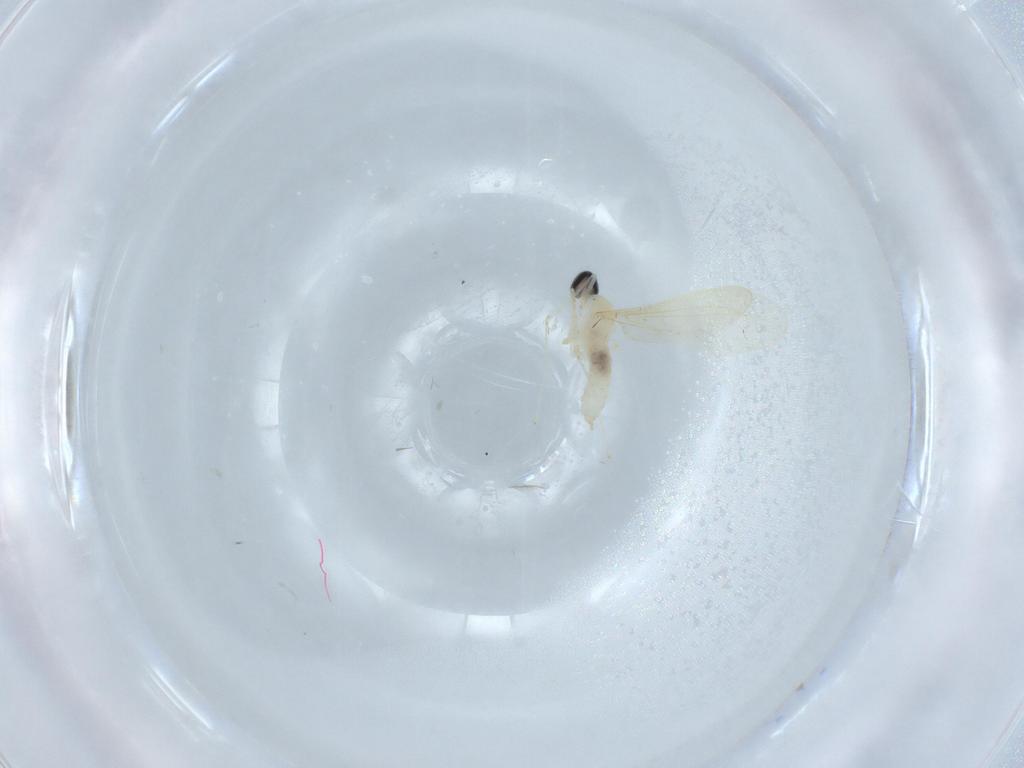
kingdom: Animalia
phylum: Arthropoda
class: Insecta
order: Diptera
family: Cecidomyiidae
